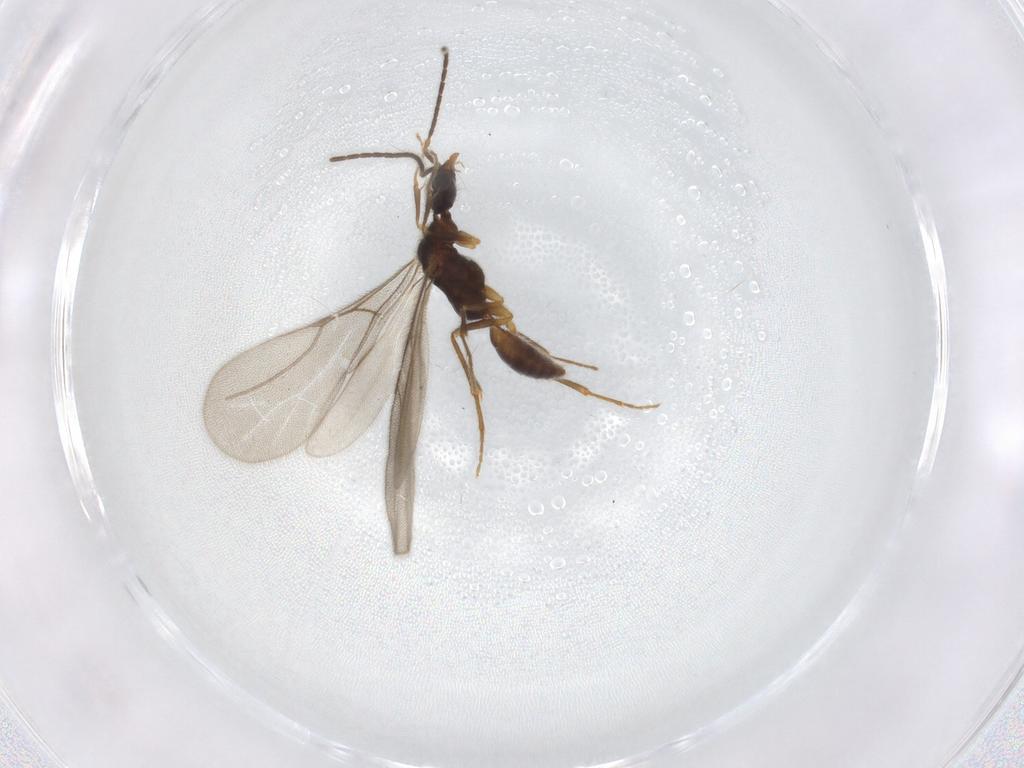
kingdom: Animalia
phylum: Arthropoda
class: Insecta
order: Hymenoptera
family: Bethylidae
